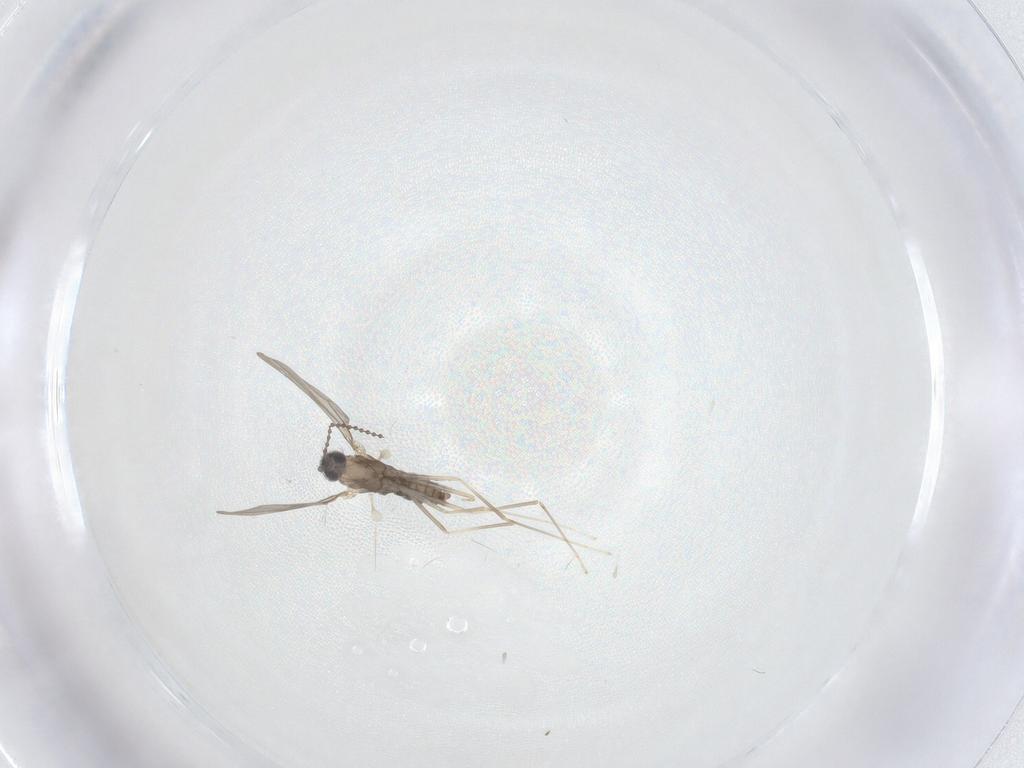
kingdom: Animalia
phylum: Arthropoda
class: Insecta
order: Diptera
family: Cecidomyiidae
